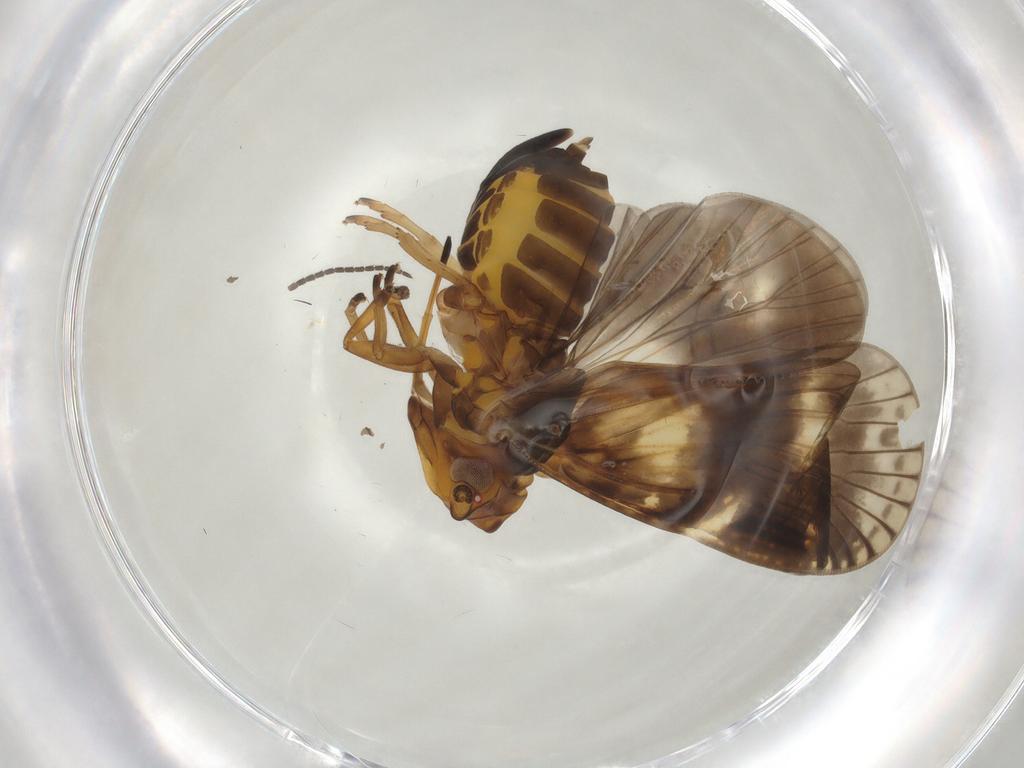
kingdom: Animalia
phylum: Arthropoda
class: Insecta
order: Hemiptera
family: Cixiidae
